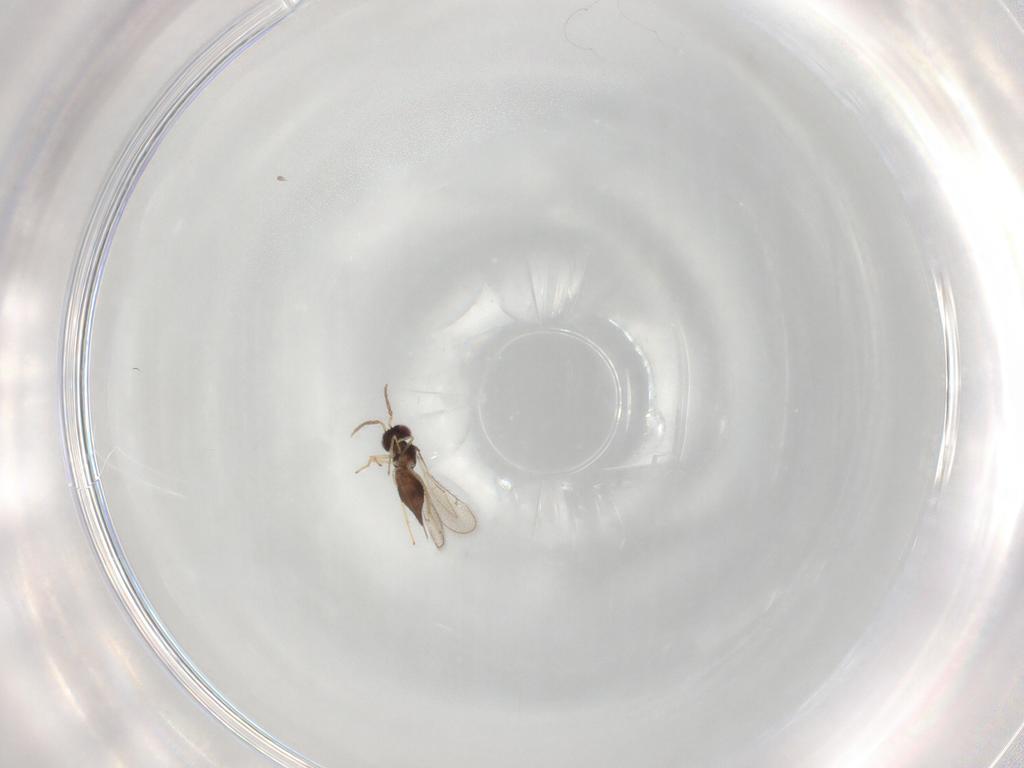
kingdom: Animalia
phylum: Arthropoda
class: Insecta
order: Hymenoptera
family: Eulophidae
